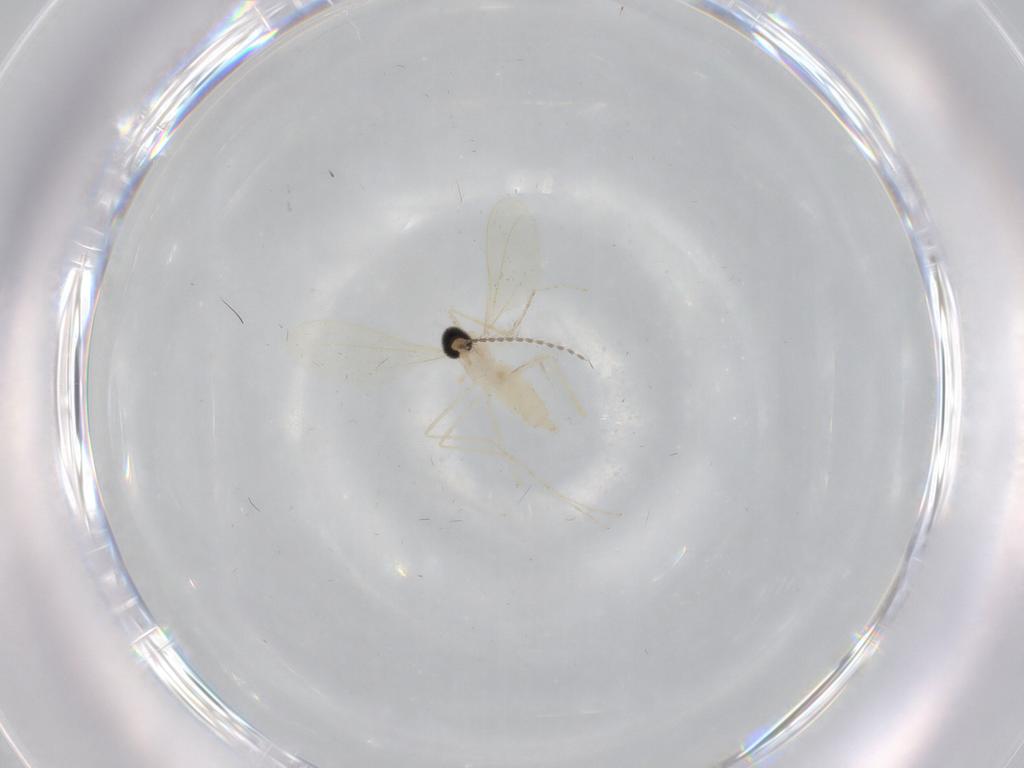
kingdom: Animalia
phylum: Arthropoda
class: Insecta
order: Diptera
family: Cecidomyiidae
